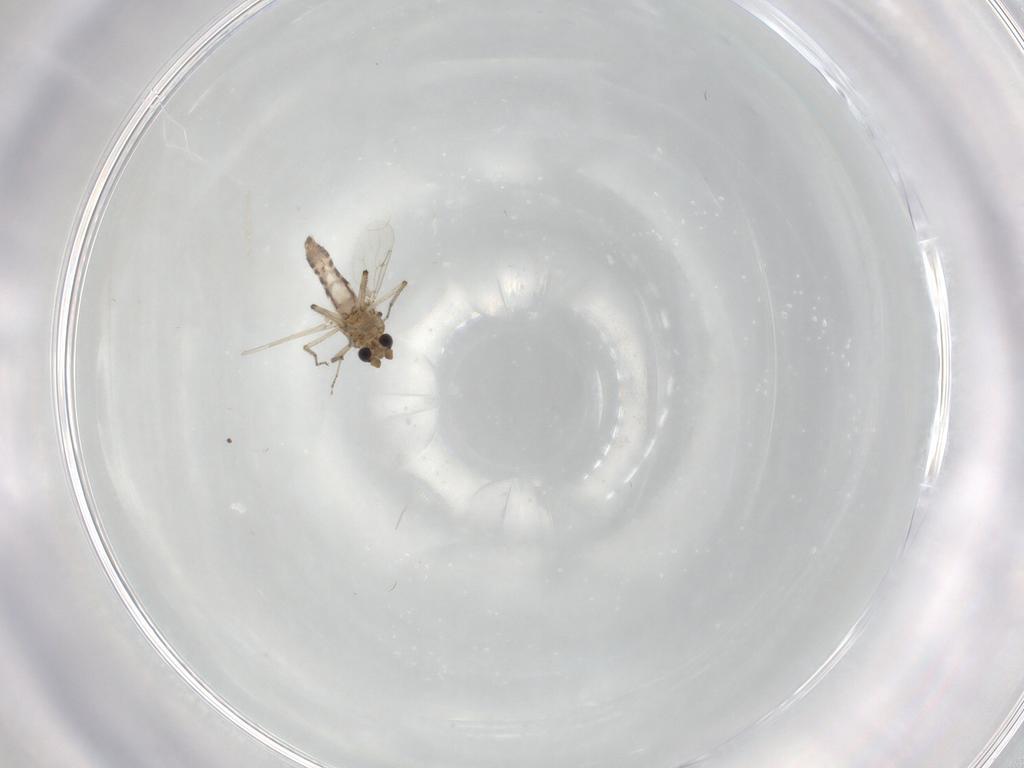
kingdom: Animalia
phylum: Arthropoda
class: Insecta
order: Diptera
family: Ceratopogonidae
